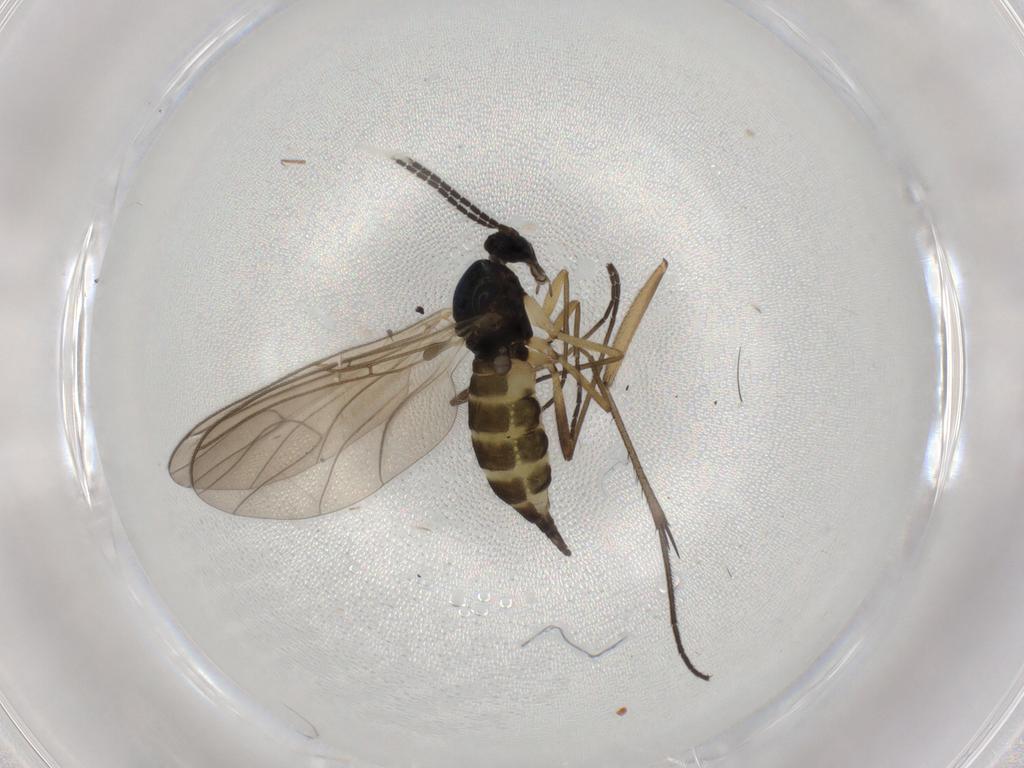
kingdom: Animalia
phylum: Arthropoda
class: Insecta
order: Diptera
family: Sciaridae
